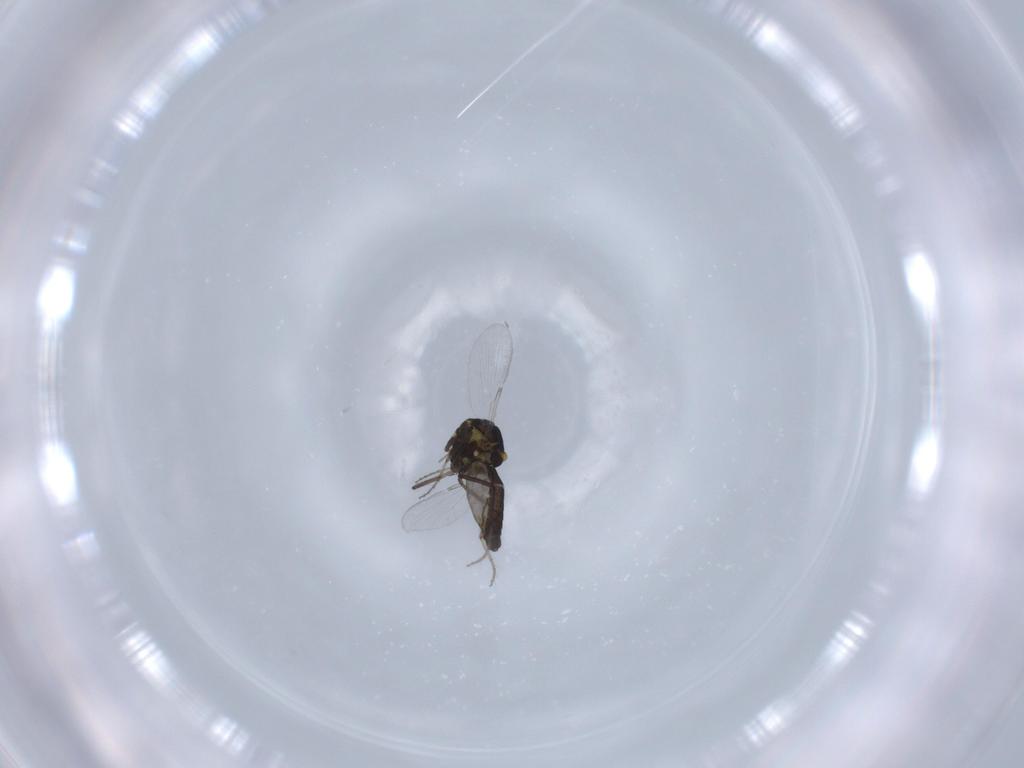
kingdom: Animalia
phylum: Arthropoda
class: Insecta
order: Diptera
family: Ceratopogonidae
